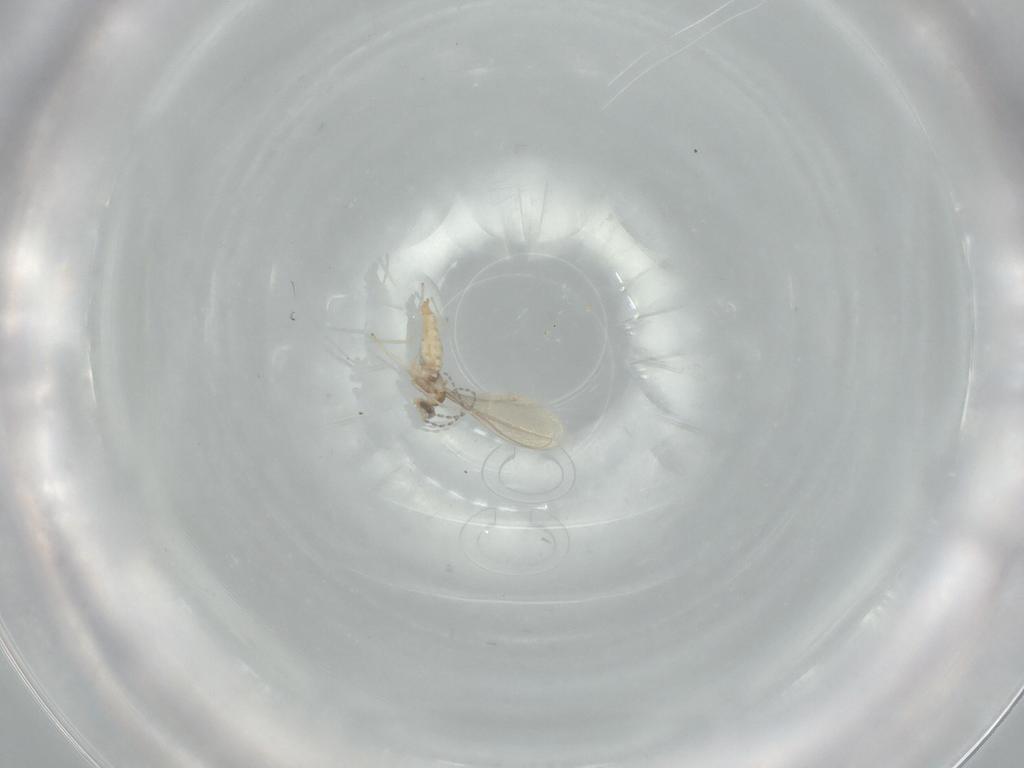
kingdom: Animalia
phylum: Arthropoda
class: Insecta
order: Diptera
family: Cecidomyiidae
